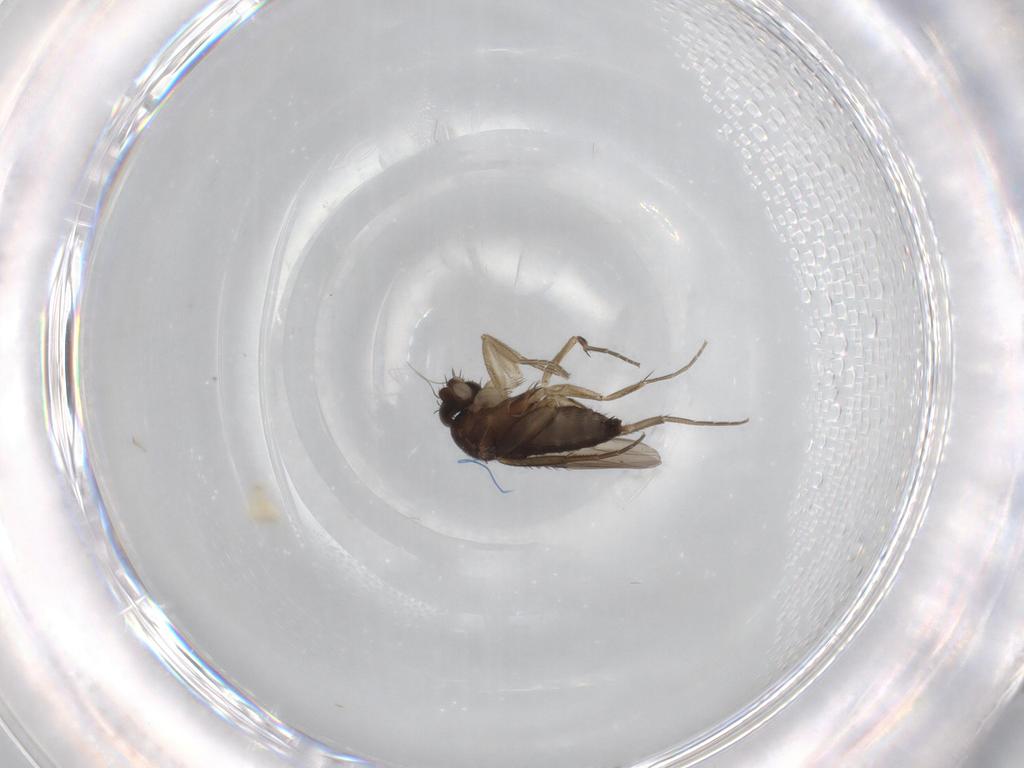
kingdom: Animalia
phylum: Arthropoda
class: Insecta
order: Diptera
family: Phoridae
